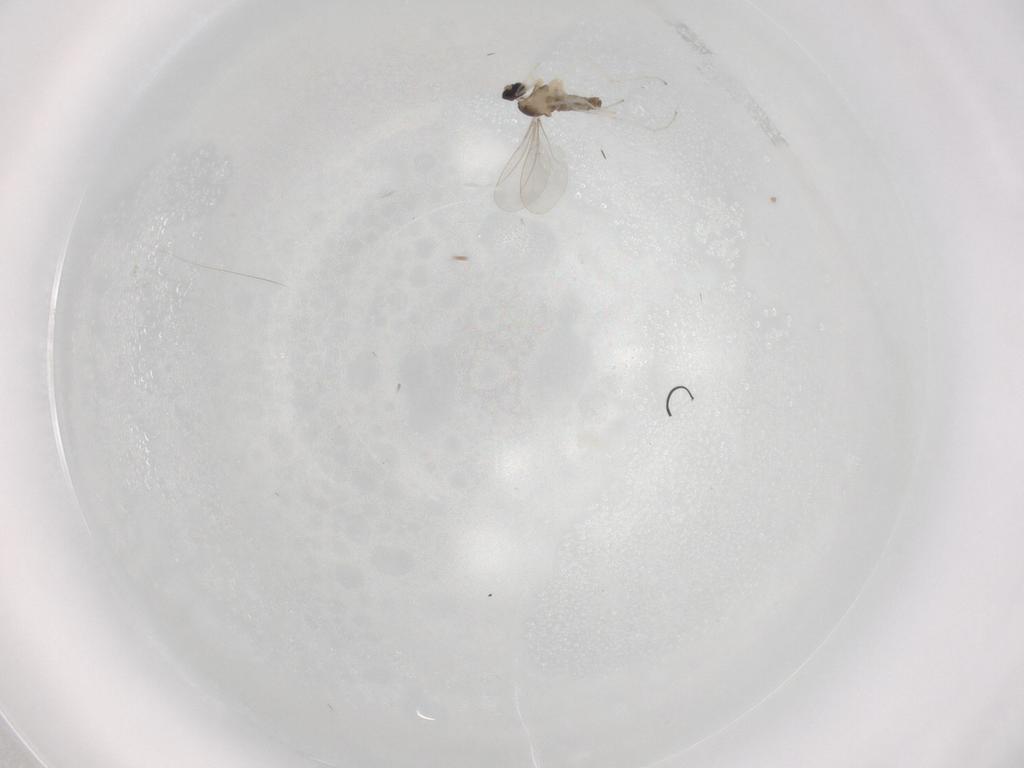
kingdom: Animalia
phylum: Arthropoda
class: Insecta
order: Diptera
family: Cecidomyiidae
